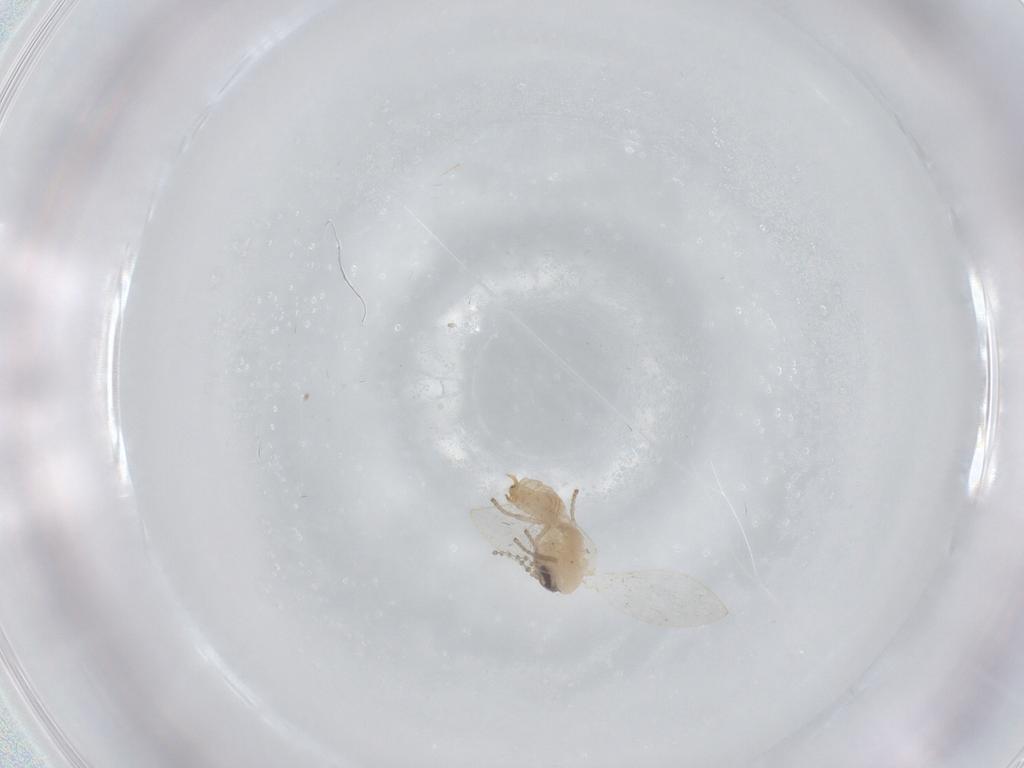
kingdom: Animalia
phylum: Arthropoda
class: Insecta
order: Diptera
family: Psychodidae
